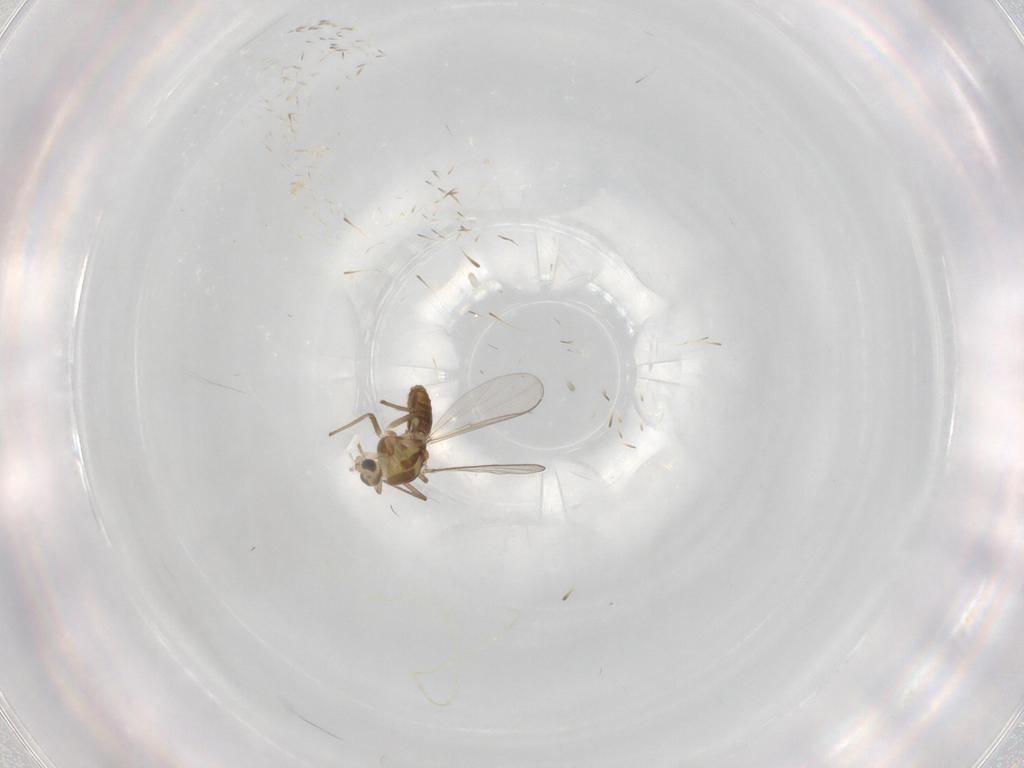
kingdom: Animalia
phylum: Arthropoda
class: Insecta
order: Diptera
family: Chironomidae
